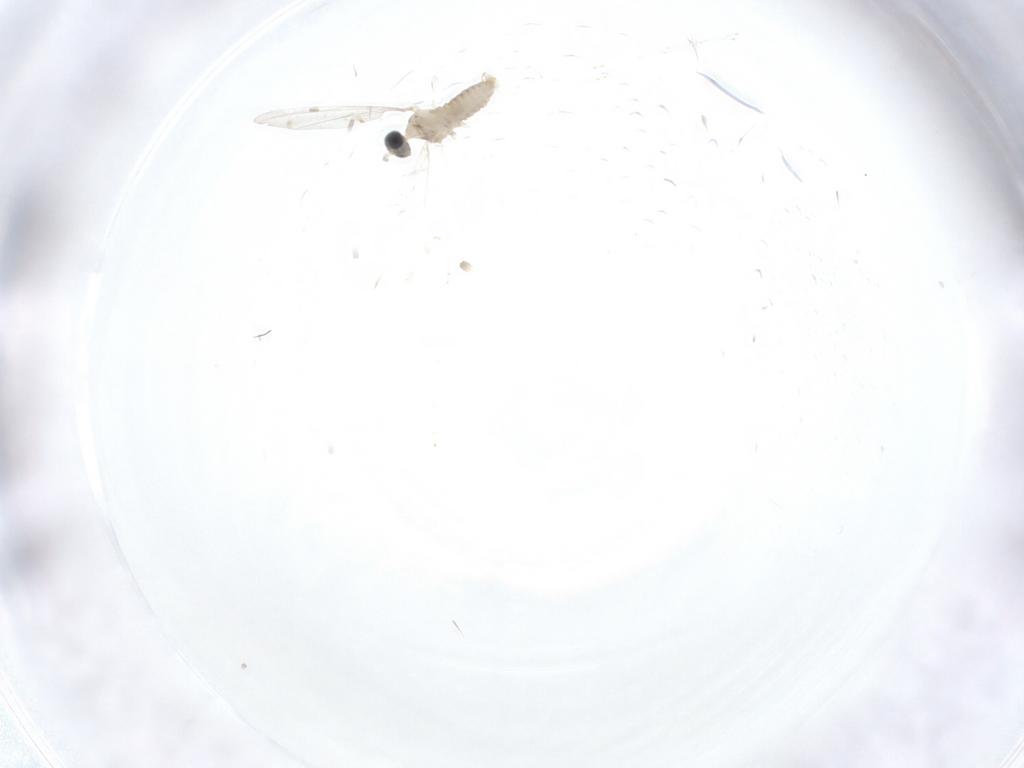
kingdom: Animalia
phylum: Arthropoda
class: Insecta
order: Diptera
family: Cecidomyiidae
